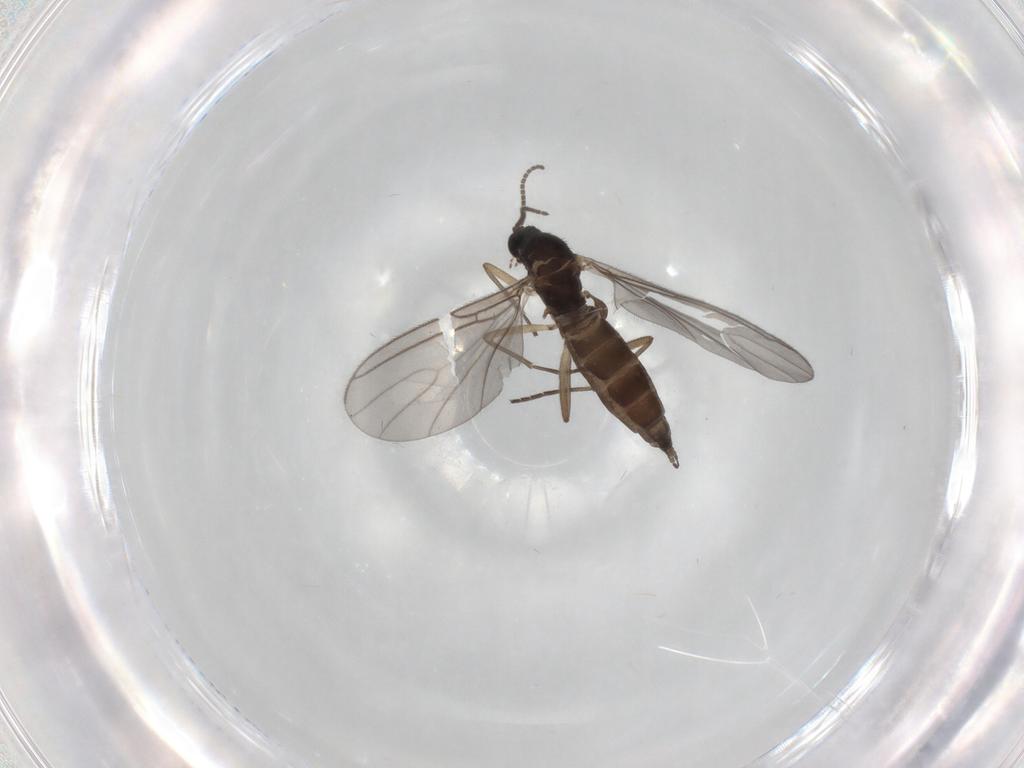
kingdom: Animalia
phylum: Arthropoda
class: Insecta
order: Diptera
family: Sciaridae
